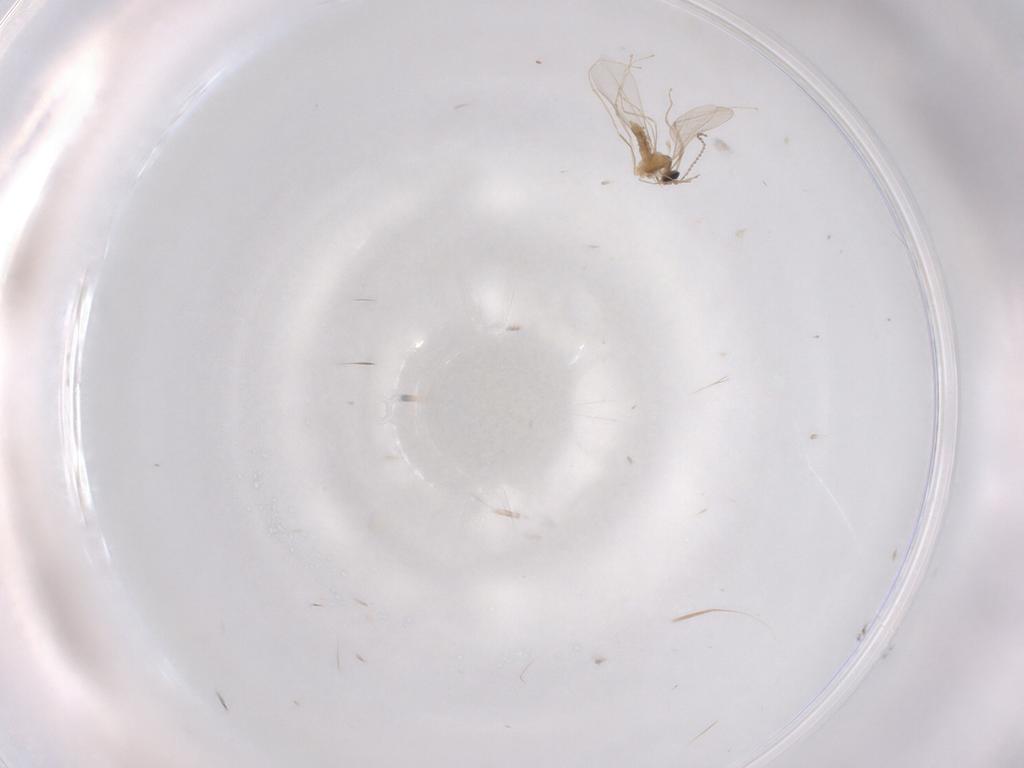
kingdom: Animalia
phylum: Arthropoda
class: Insecta
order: Diptera
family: Cecidomyiidae
